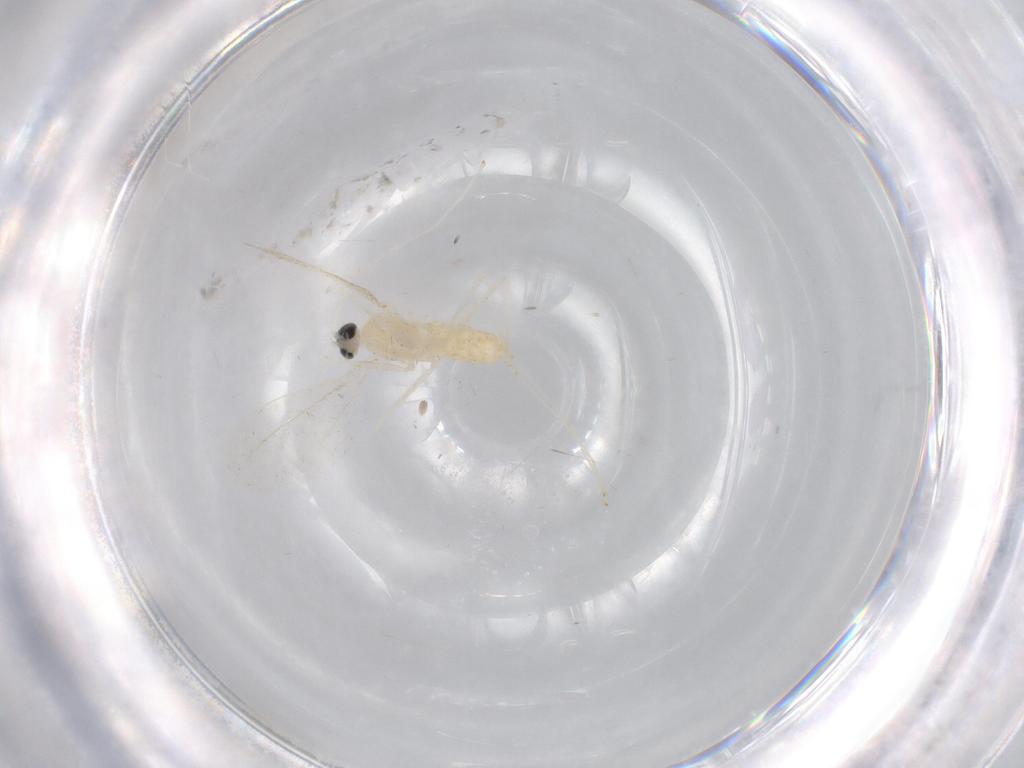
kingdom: Animalia
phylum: Arthropoda
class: Insecta
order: Diptera
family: Cecidomyiidae
